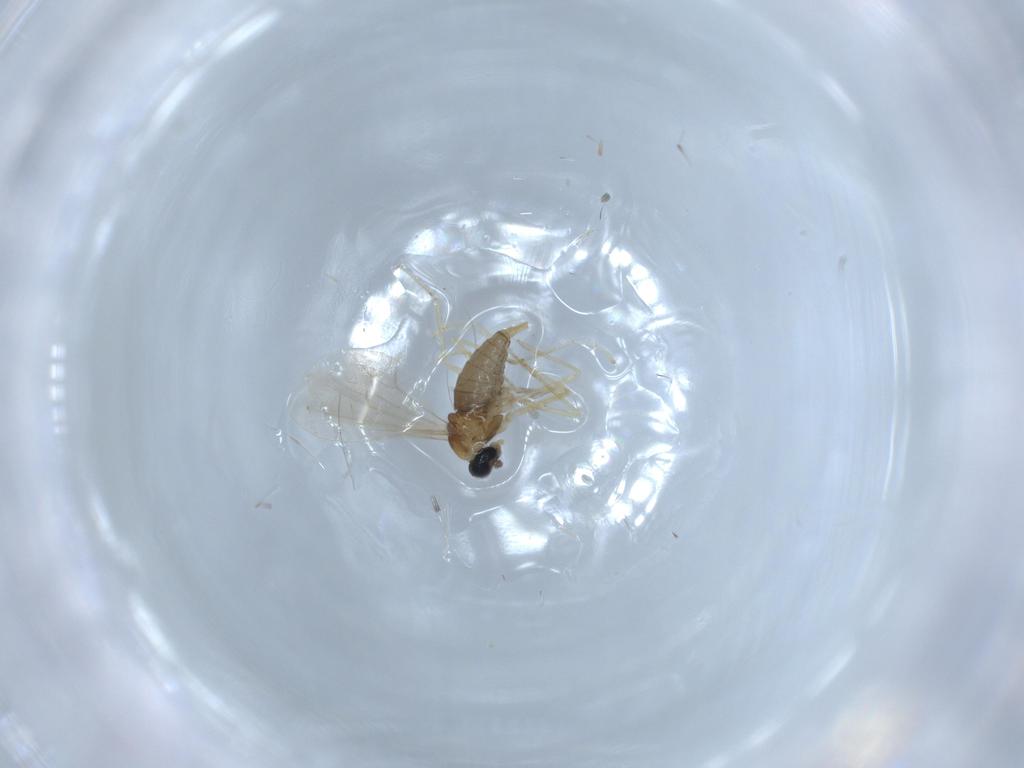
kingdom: Animalia
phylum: Arthropoda
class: Insecta
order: Diptera
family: Cecidomyiidae
